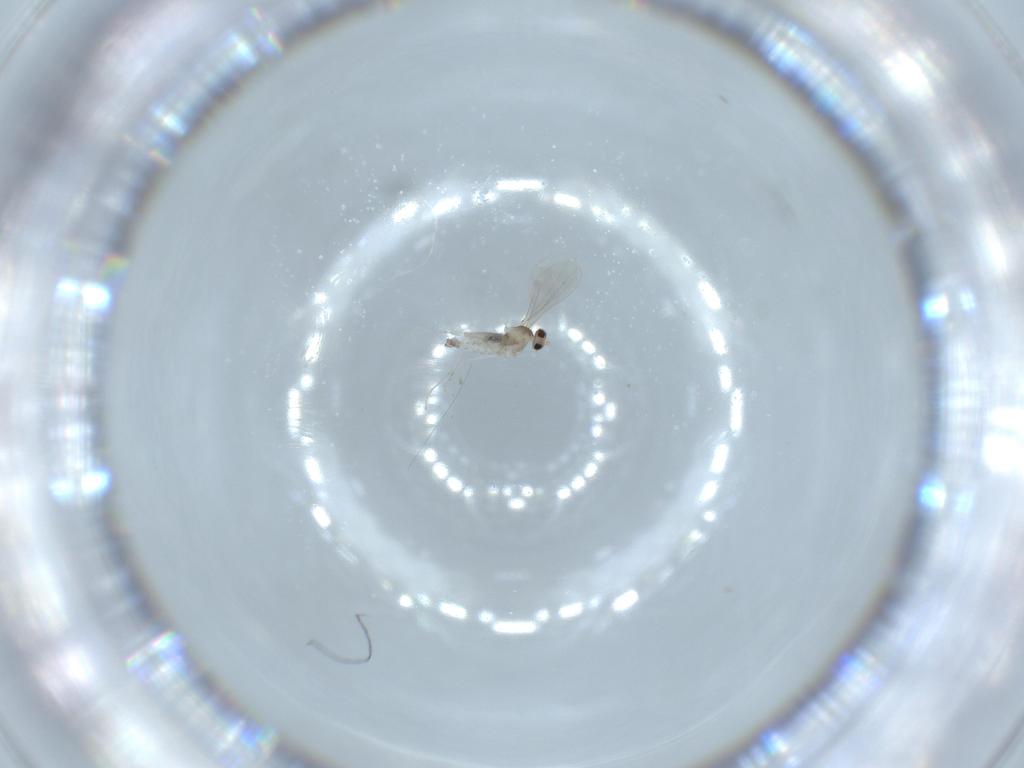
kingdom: Animalia
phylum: Arthropoda
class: Insecta
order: Diptera
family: Cecidomyiidae
